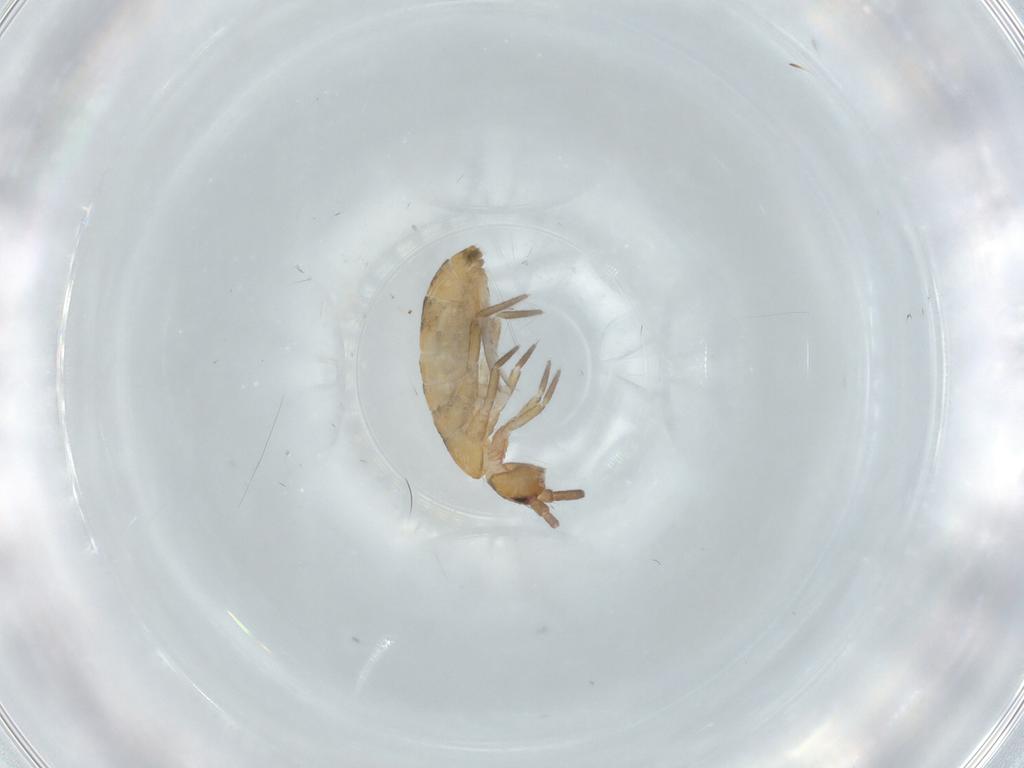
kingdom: Animalia
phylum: Arthropoda
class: Collembola
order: Entomobryomorpha
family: Tomoceridae
